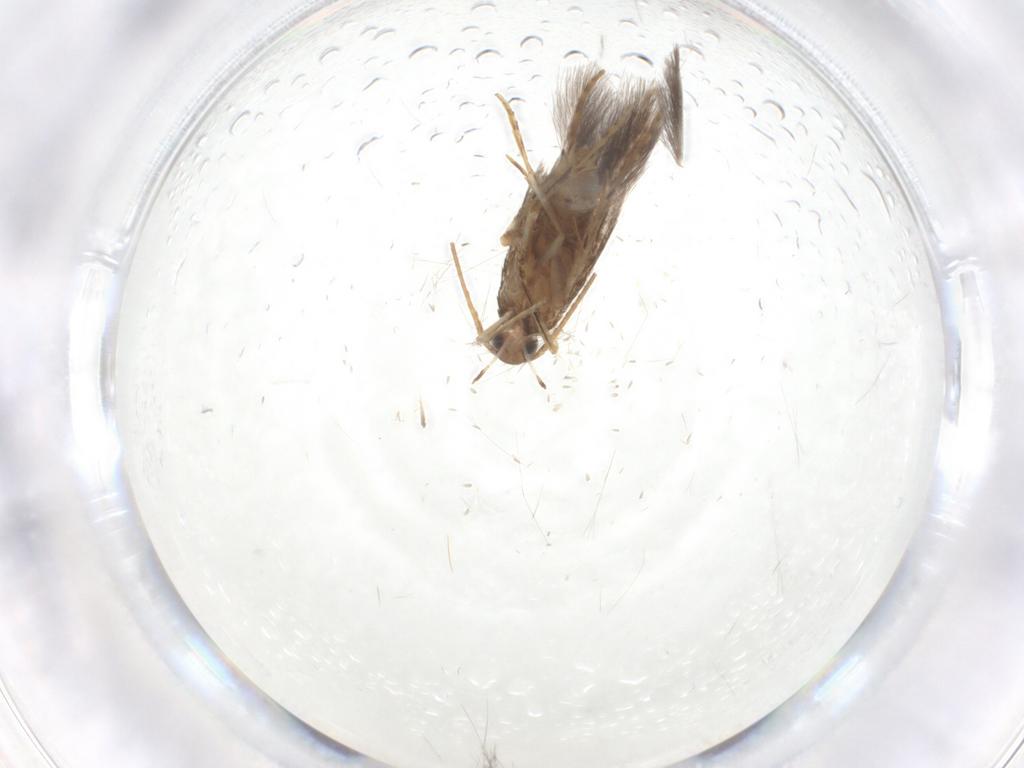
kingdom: Animalia
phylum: Arthropoda
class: Insecta
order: Lepidoptera
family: Coleophoridae
